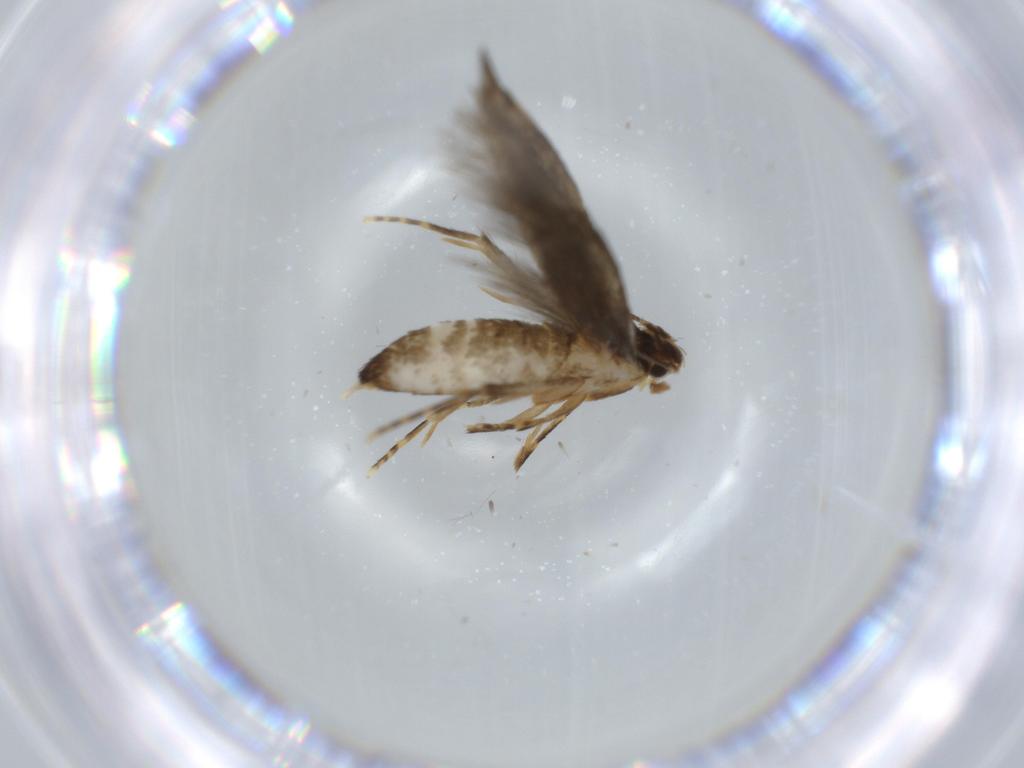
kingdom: Animalia
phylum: Arthropoda
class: Insecta
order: Lepidoptera
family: Tineidae
